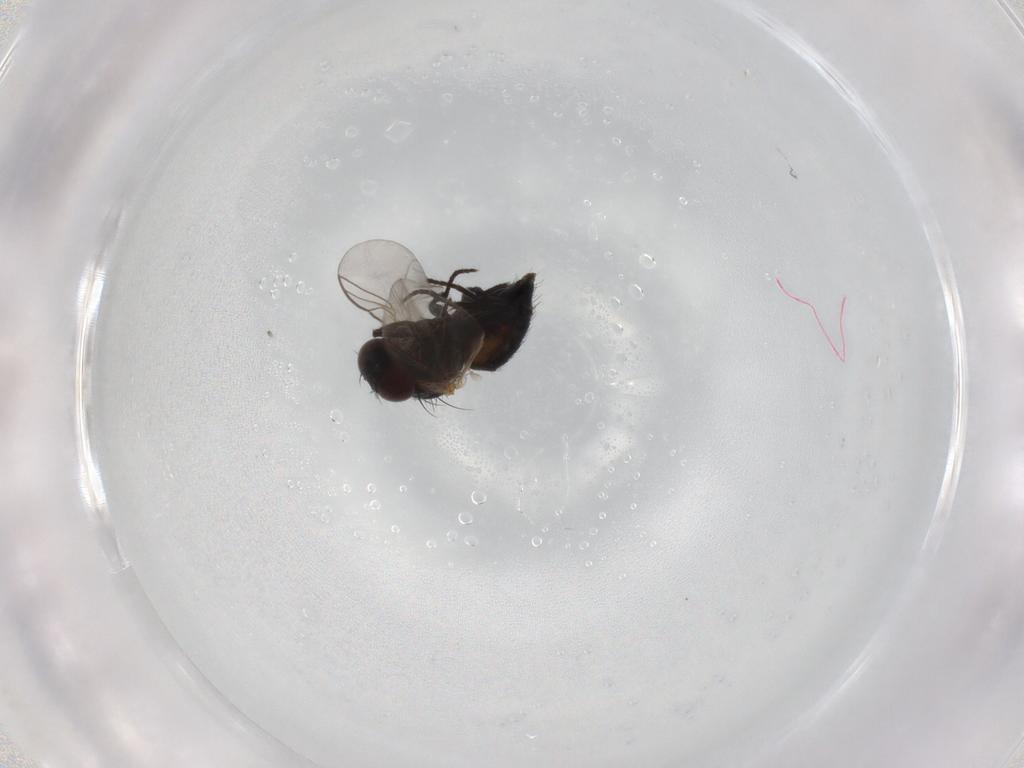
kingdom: Animalia
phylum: Arthropoda
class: Insecta
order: Diptera
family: Agromyzidae
